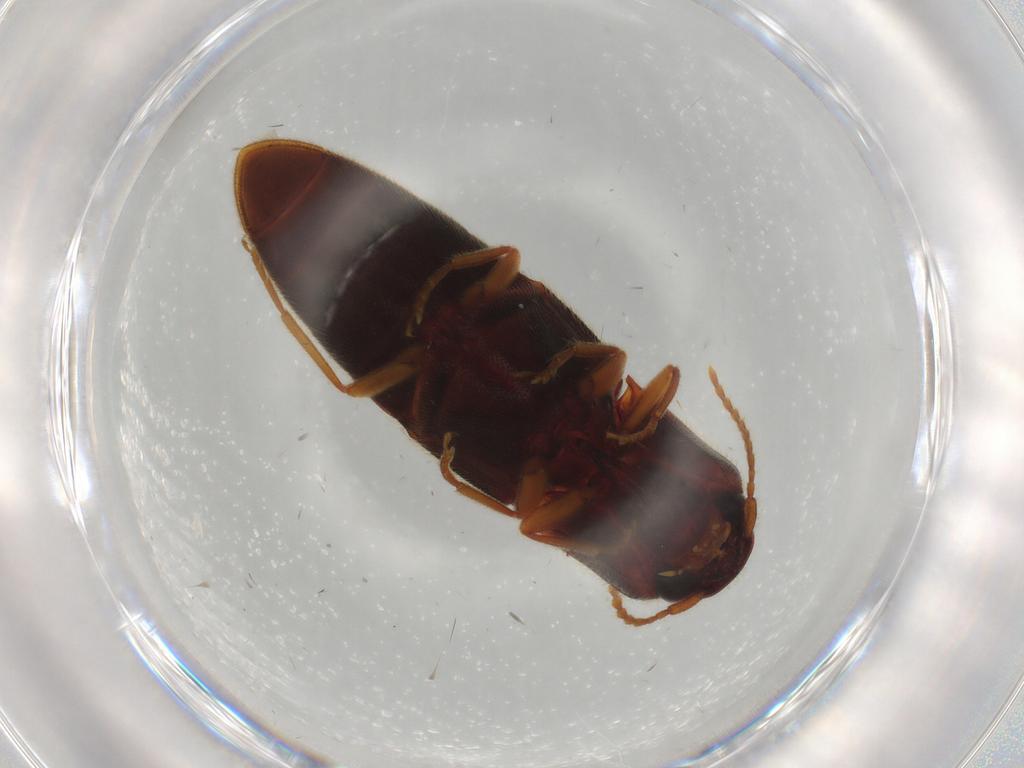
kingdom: Animalia
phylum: Arthropoda
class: Insecta
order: Coleoptera
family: Elateridae
